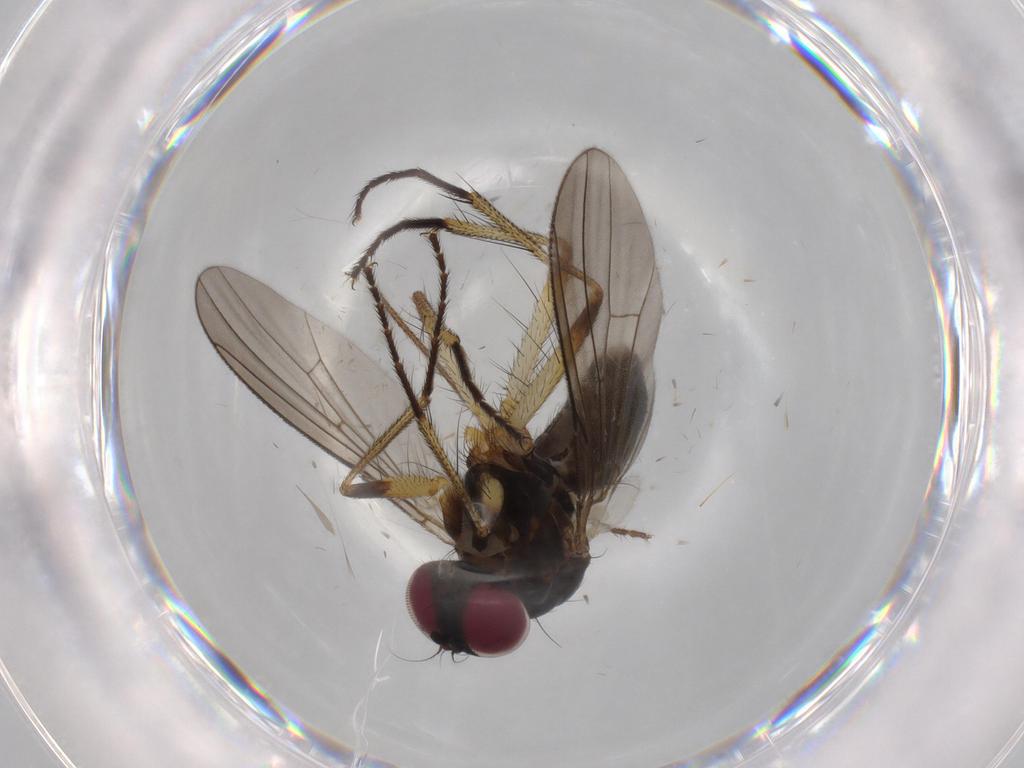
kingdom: Animalia
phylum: Arthropoda
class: Insecta
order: Diptera
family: Anthomyiidae
